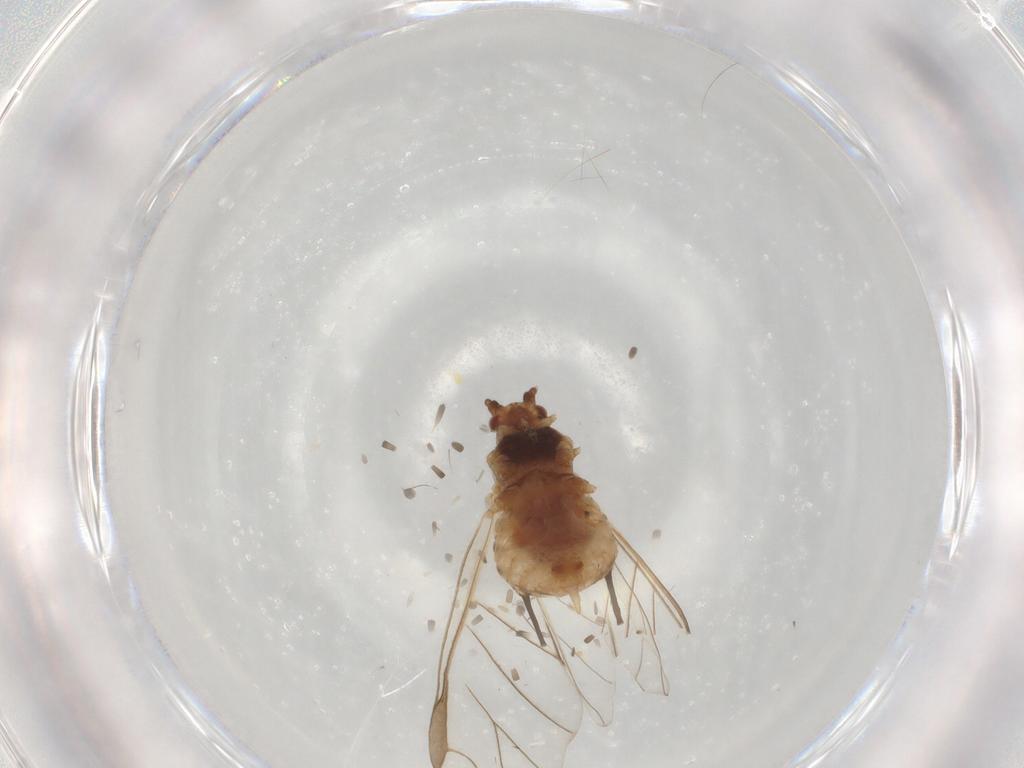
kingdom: Animalia
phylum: Arthropoda
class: Insecta
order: Hemiptera
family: Aphididae
